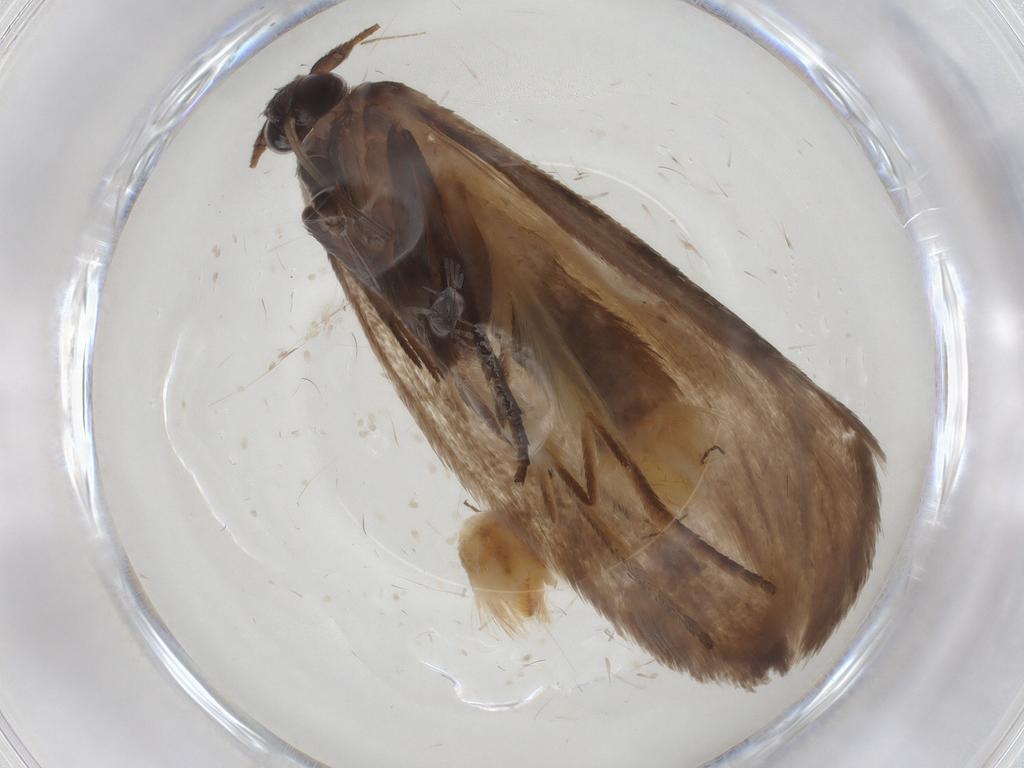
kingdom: Animalia
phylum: Arthropoda
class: Insecta
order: Lepidoptera
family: Roeslerstammiidae
